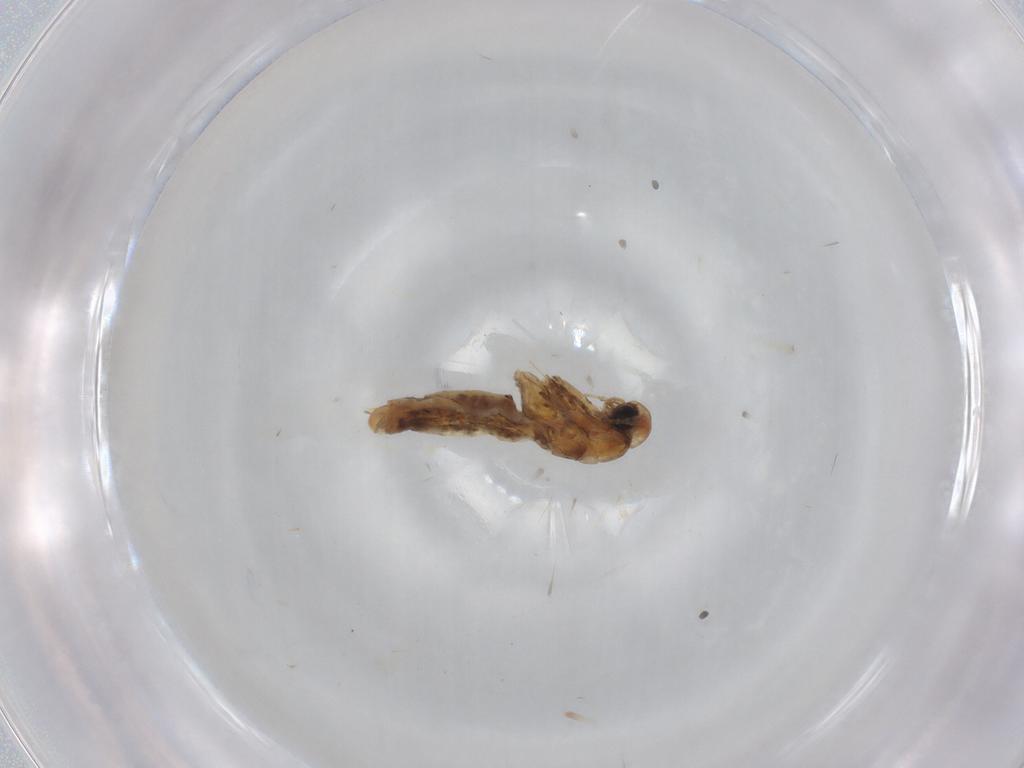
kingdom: Animalia
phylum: Arthropoda
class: Insecta
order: Lepidoptera
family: Gracillariidae
